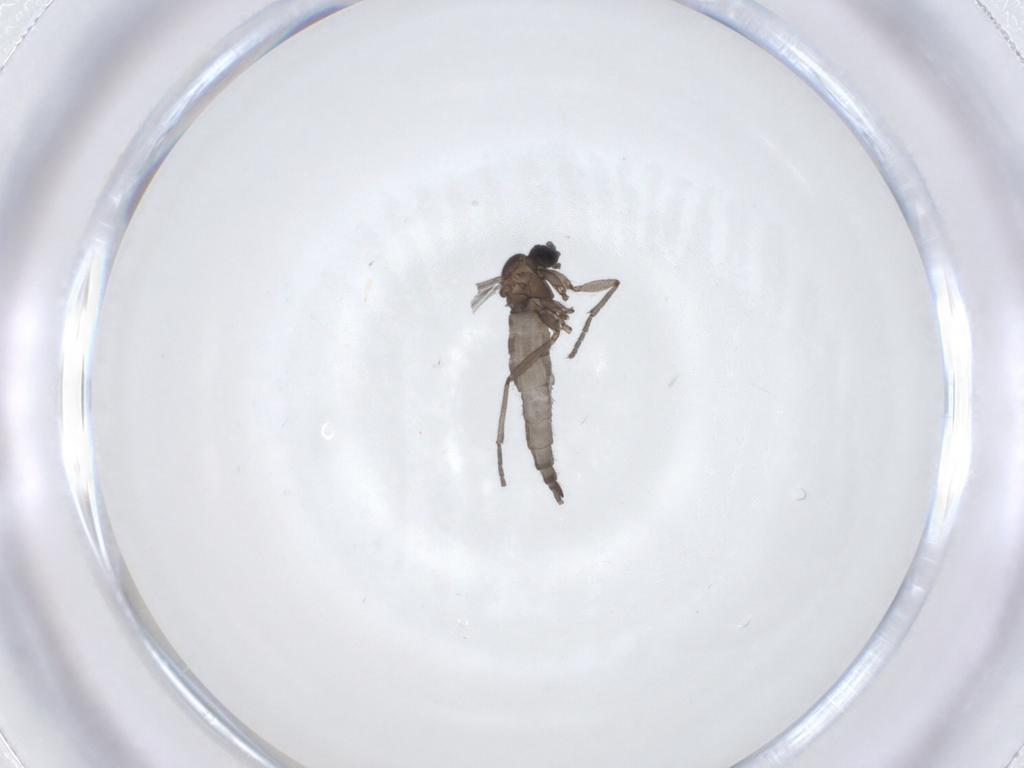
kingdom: Animalia
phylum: Arthropoda
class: Insecta
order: Diptera
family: Sciaridae
